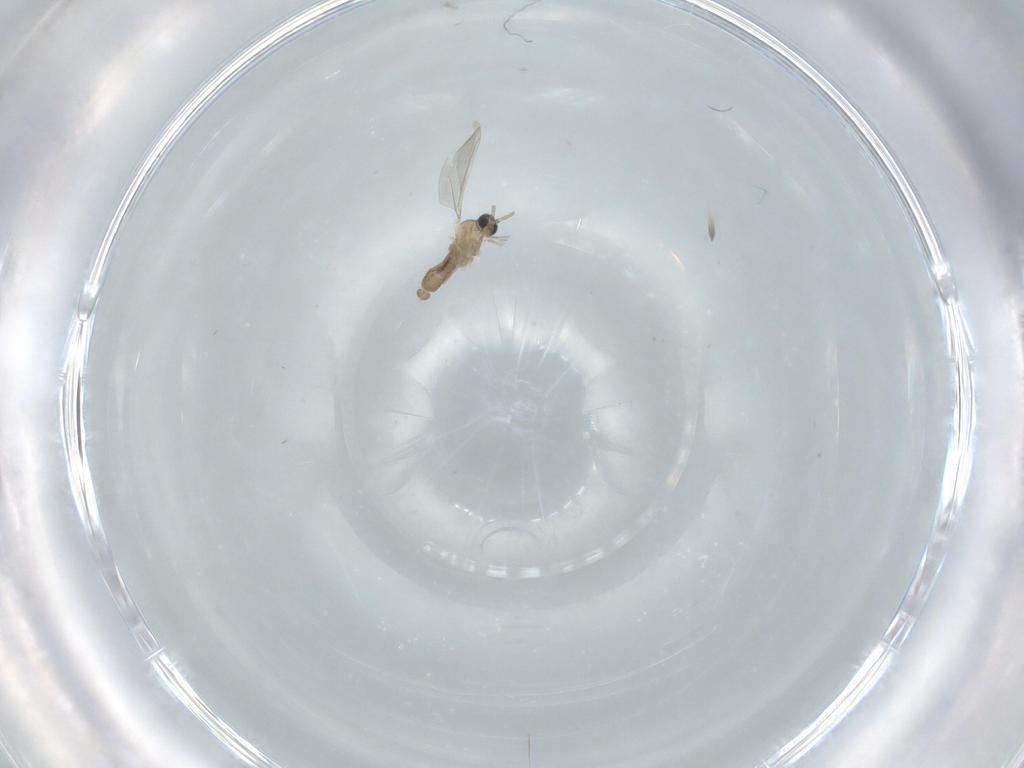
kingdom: Animalia
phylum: Arthropoda
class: Insecta
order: Diptera
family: Cecidomyiidae
